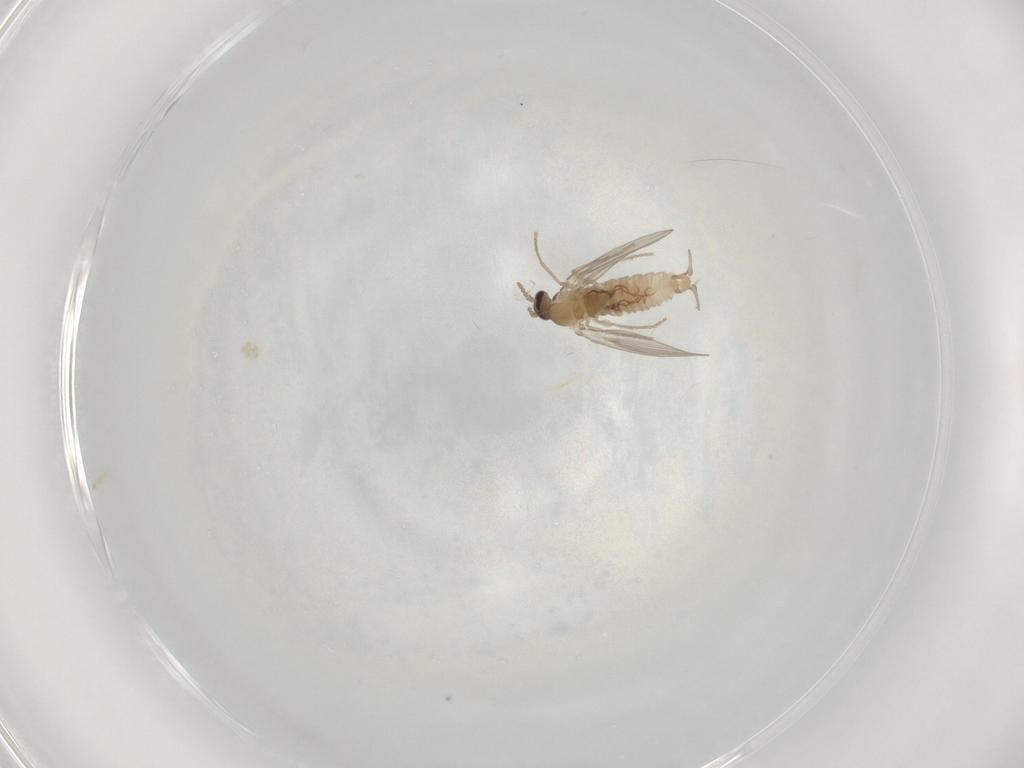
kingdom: Animalia
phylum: Arthropoda
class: Insecta
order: Diptera
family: Psychodidae
